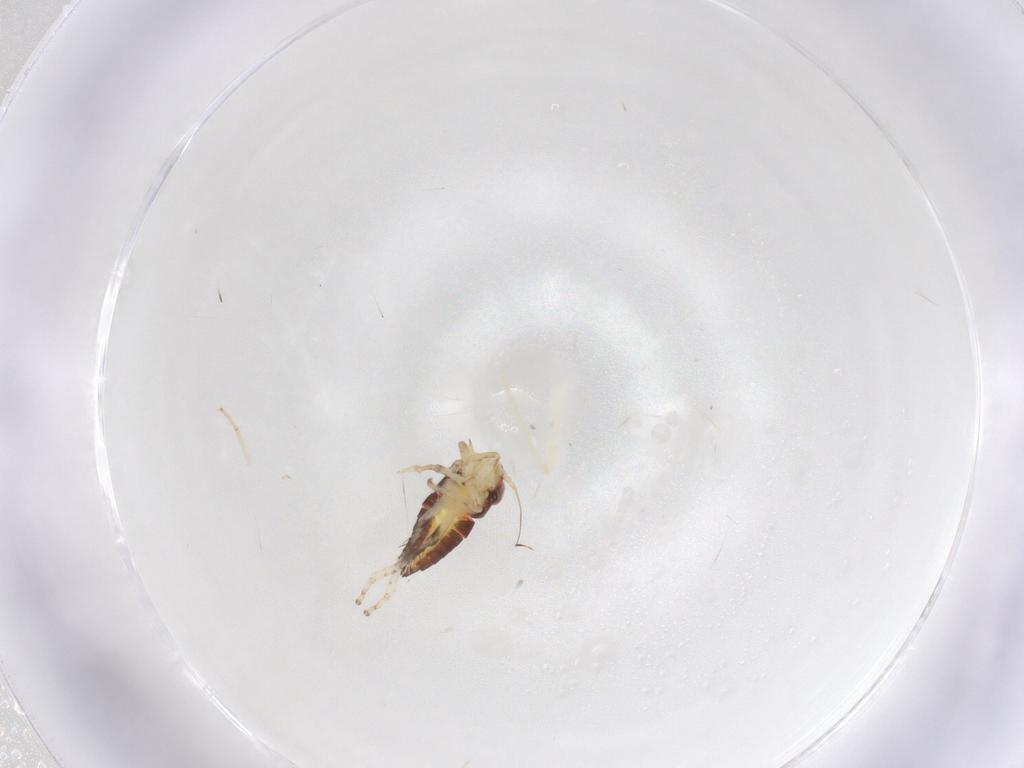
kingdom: Animalia
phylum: Arthropoda
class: Insecta
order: Hemiptera
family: Cicadellidae
